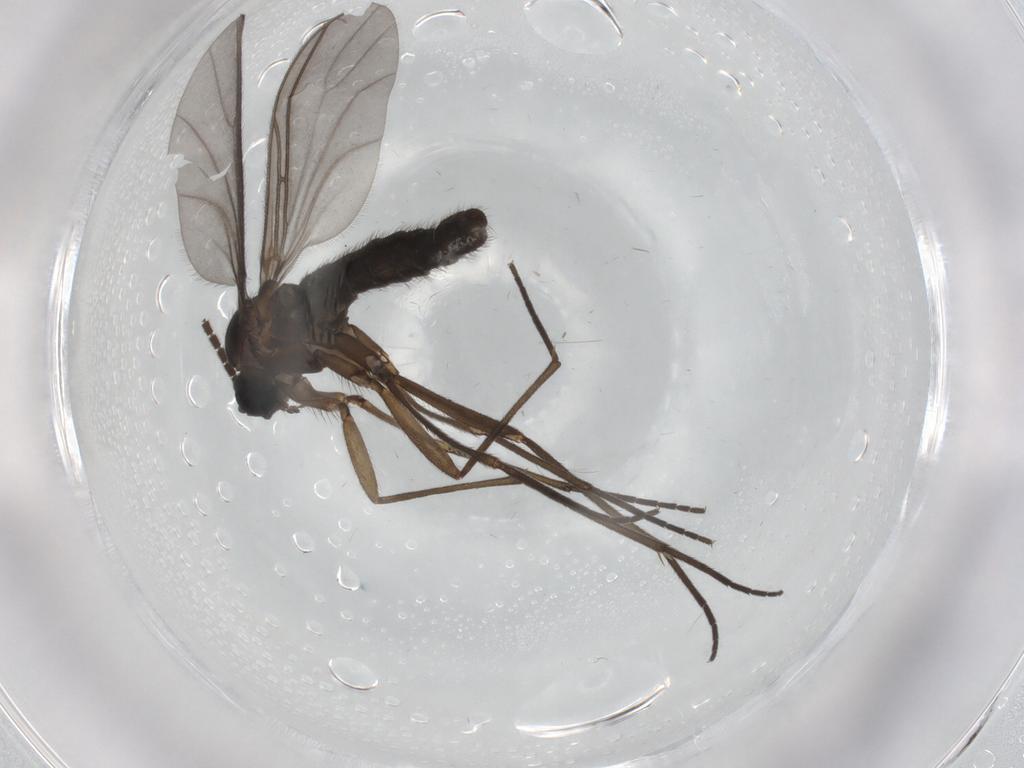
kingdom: Animalia
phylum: Arthropoda
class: Insecta
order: Diptera
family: Sciaridae
